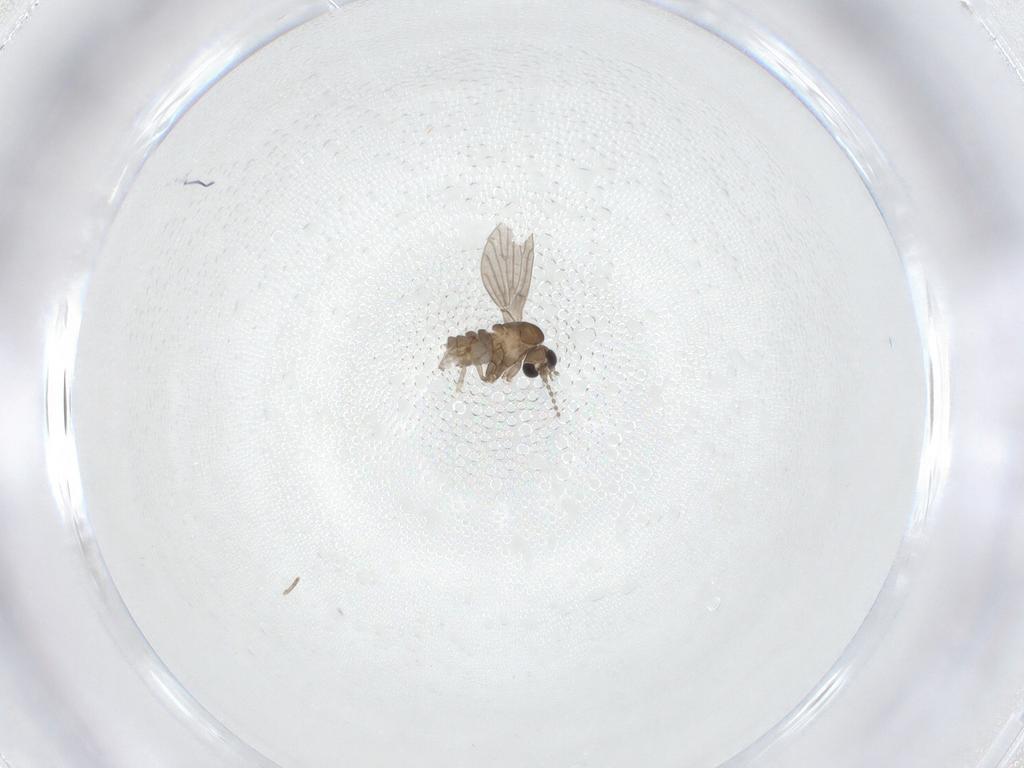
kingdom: Animalia
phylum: Arthropoda
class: Insecta
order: Diptera
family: Psychodidae
